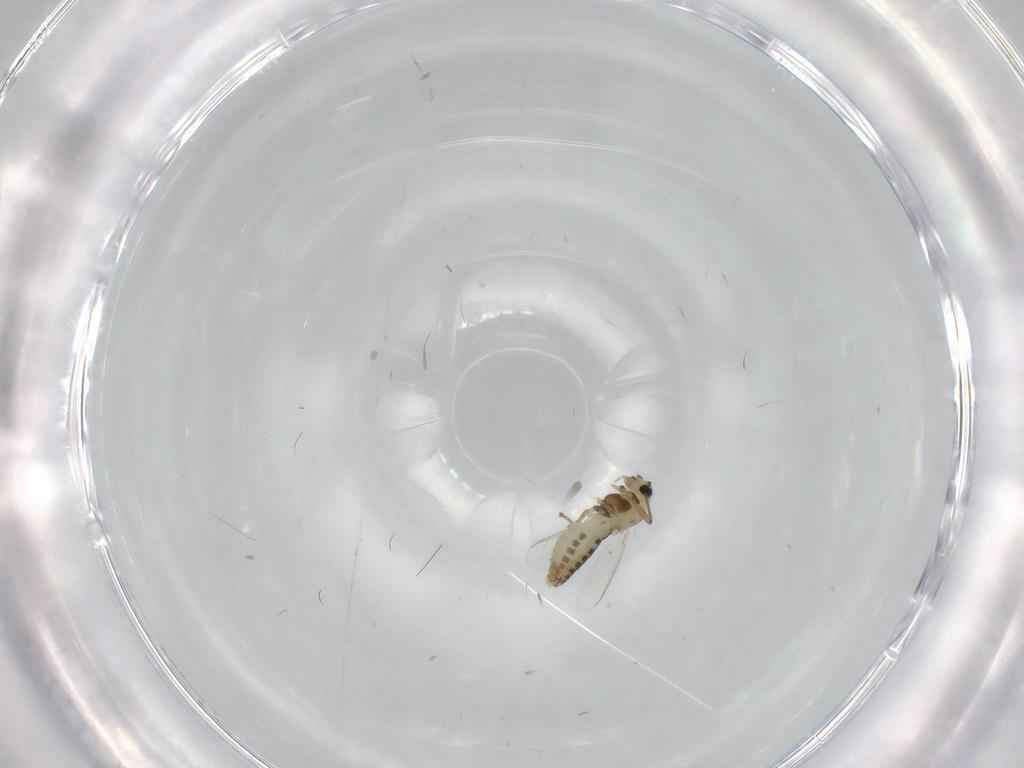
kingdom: Animalia
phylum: Arthropoda
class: Insecta
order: Diptera
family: Chironomidae
